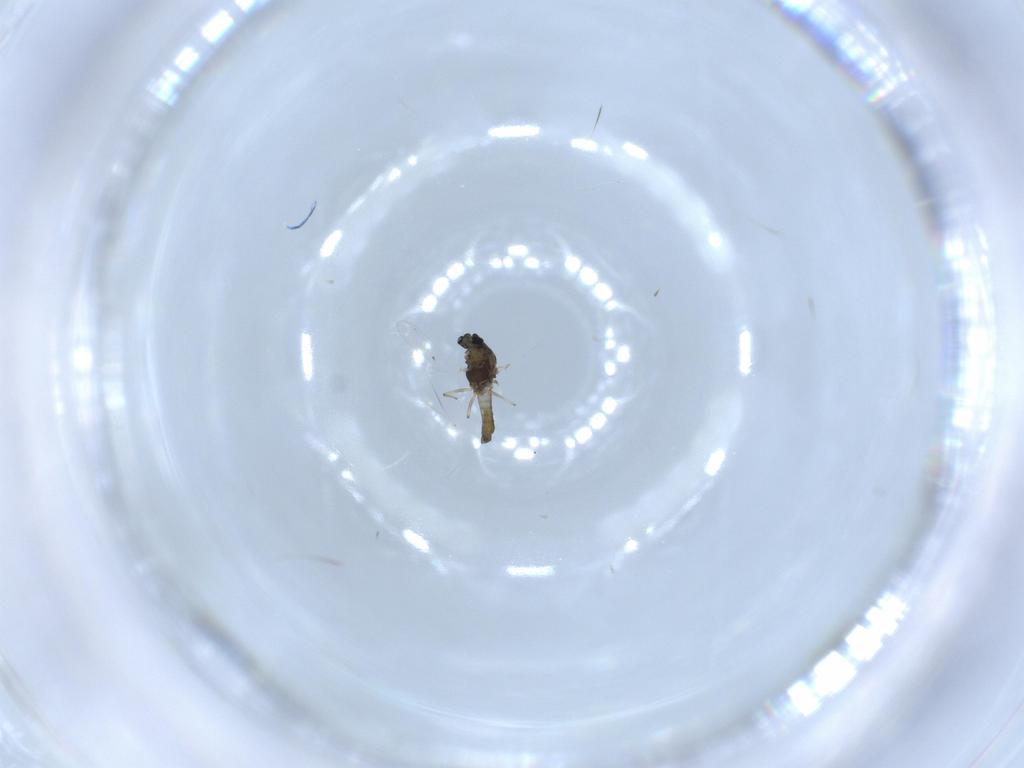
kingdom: Animalia
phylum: Arthropoda
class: Insecta
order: Diptera
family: Chironomidae
